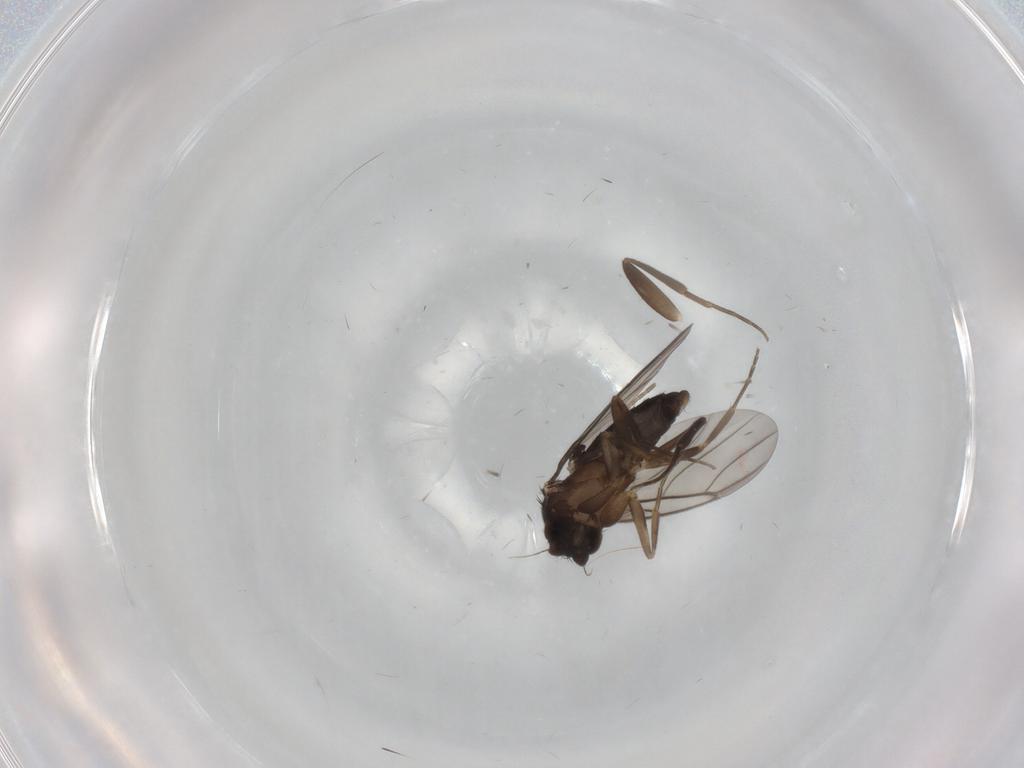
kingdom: Animalia
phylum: Arthropoda
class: Insecta
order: Diptera
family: Phoridae
